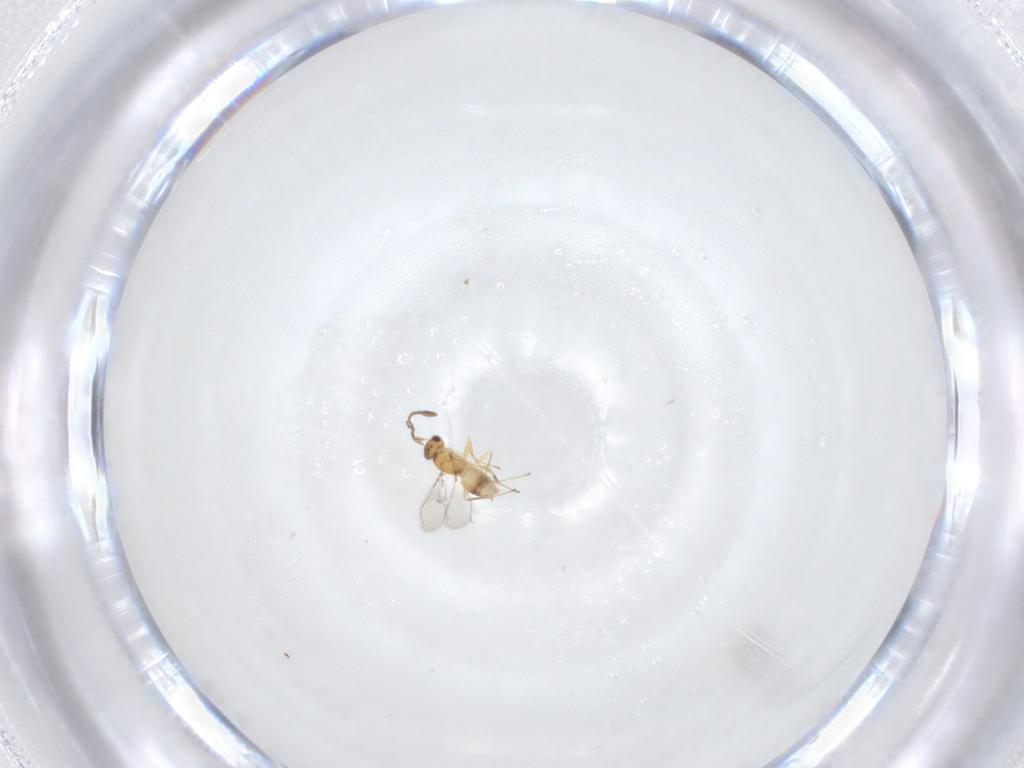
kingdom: Animalia
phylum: Arthropoda
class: Insecta
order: Hymenoptera
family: Mymaridae
